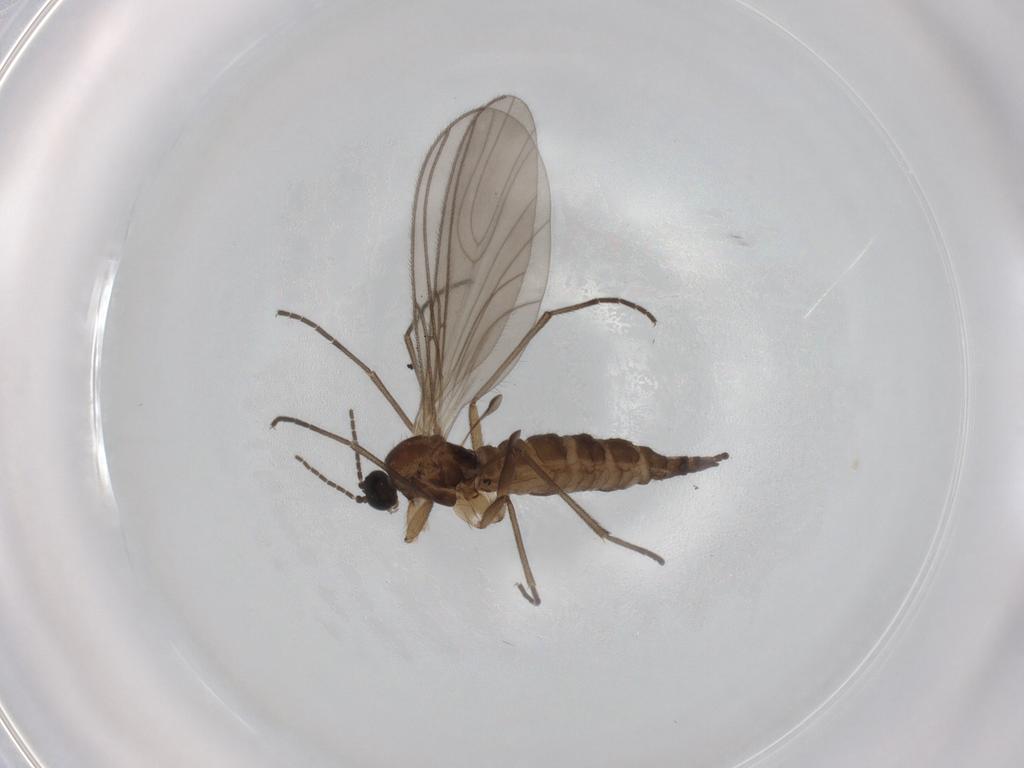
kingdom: Animalia
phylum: Arthropoda
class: Insecta
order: Diptera
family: Sciaridae
